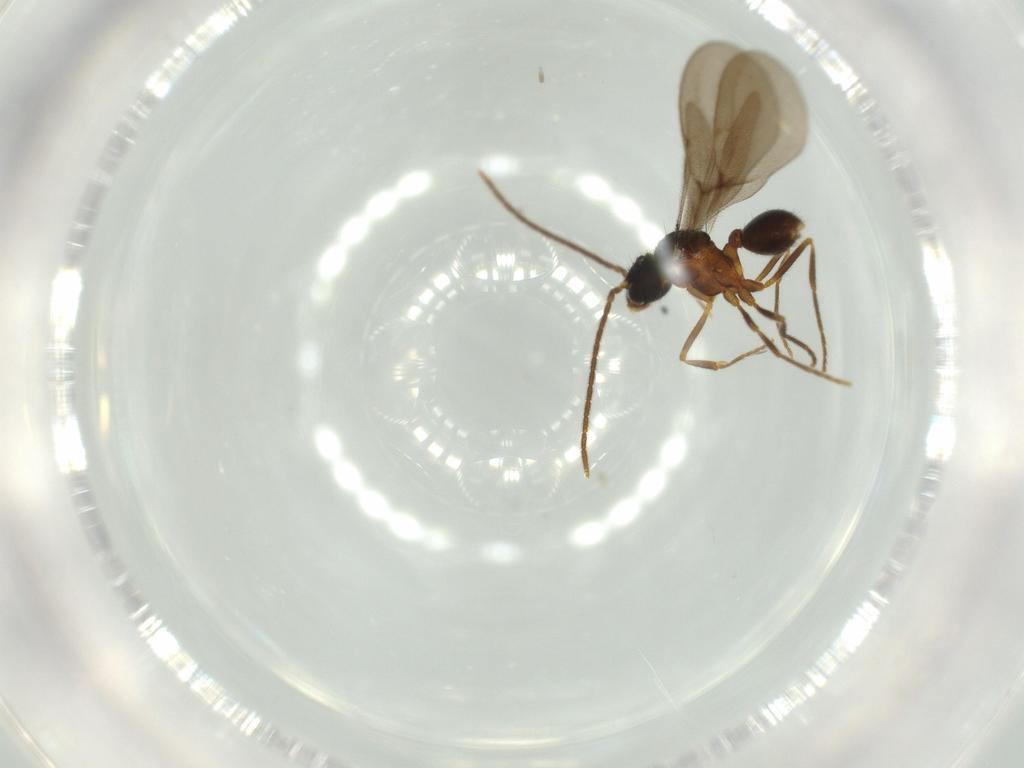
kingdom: Animalia
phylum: Arthropoda
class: Insecta
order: Hymenoptera
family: Formicidae
